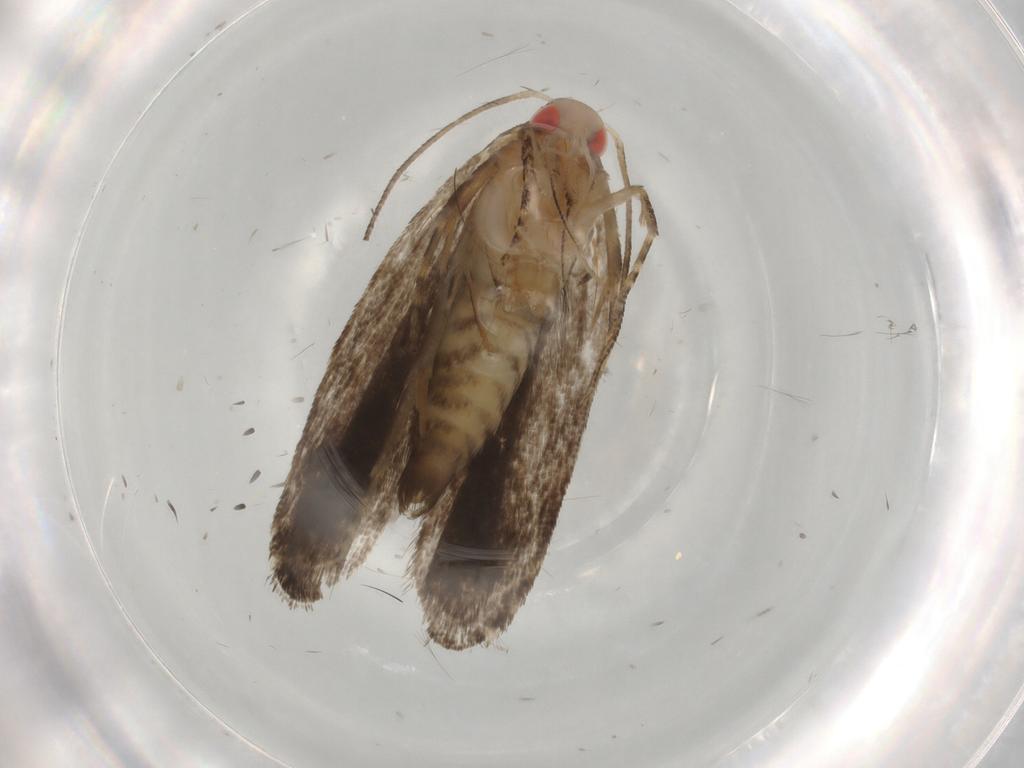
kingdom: Animalia
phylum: Arthropoda
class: Insecta
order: Lepidoptera
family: Crambidae
